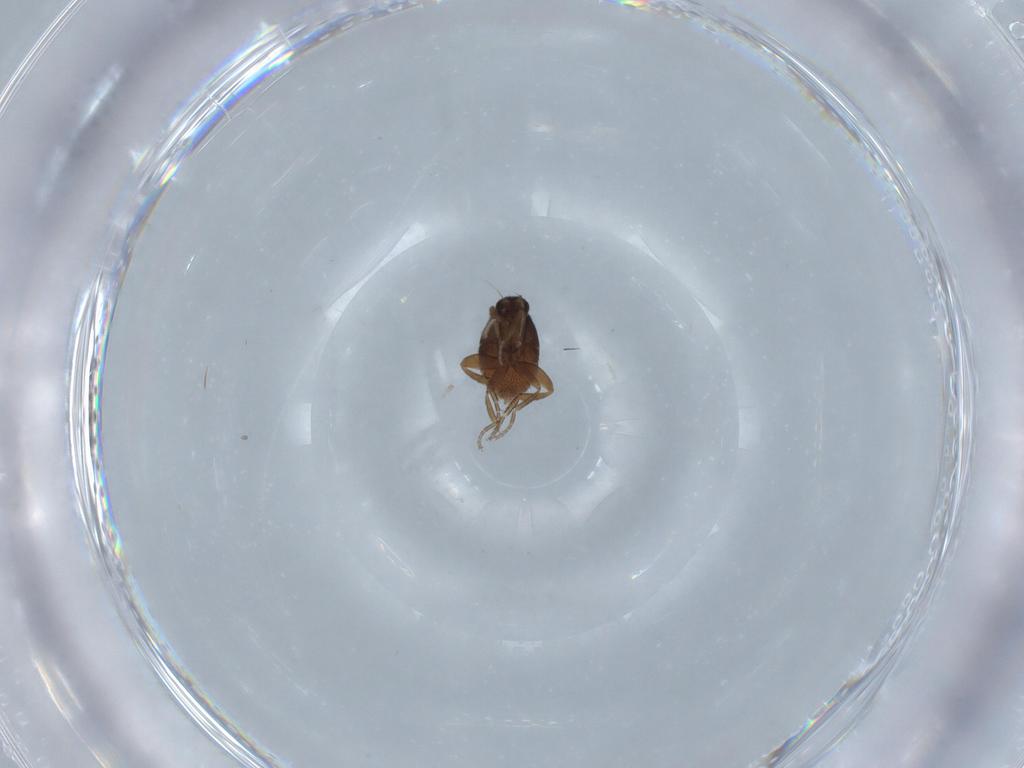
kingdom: Animalia
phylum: Arthropoda
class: Insecta
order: Diptera
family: Phoridae
